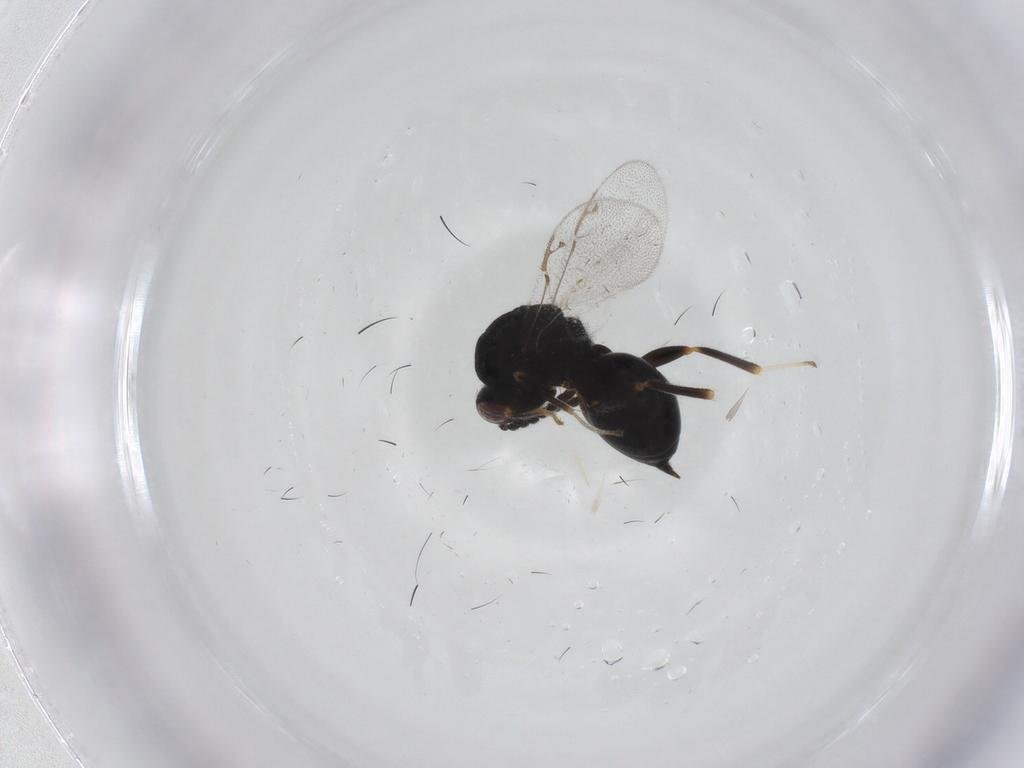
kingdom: Animalia
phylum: Arthropoda
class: Insecta
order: Hymenoptera
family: Eurytomidae
